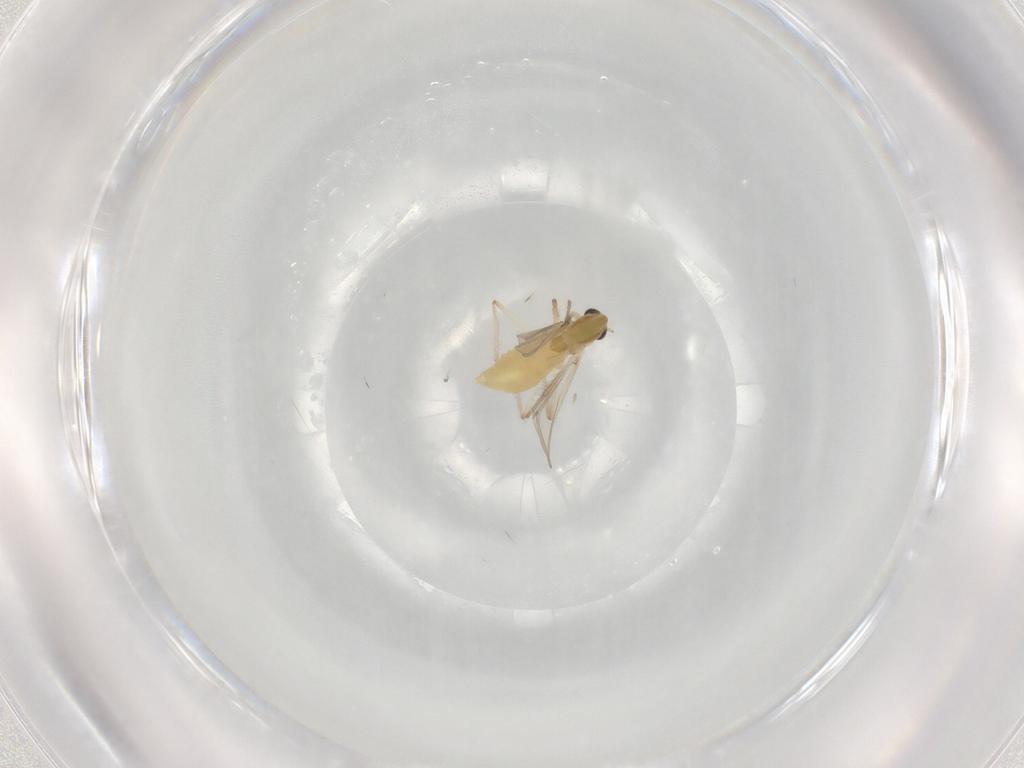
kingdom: Animalia
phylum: Arthropoda
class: Insecta
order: Diptera
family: Chironomidae
